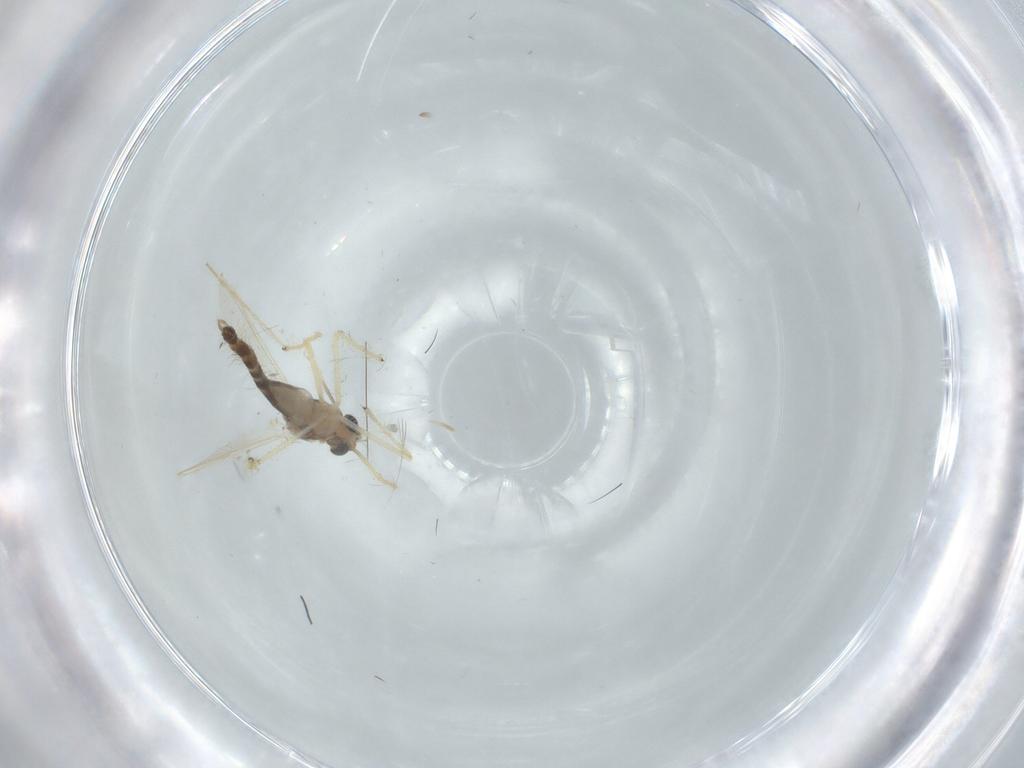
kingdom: Animalia
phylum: Arthropoda
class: Insecta
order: Diptera
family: Chironomidae
